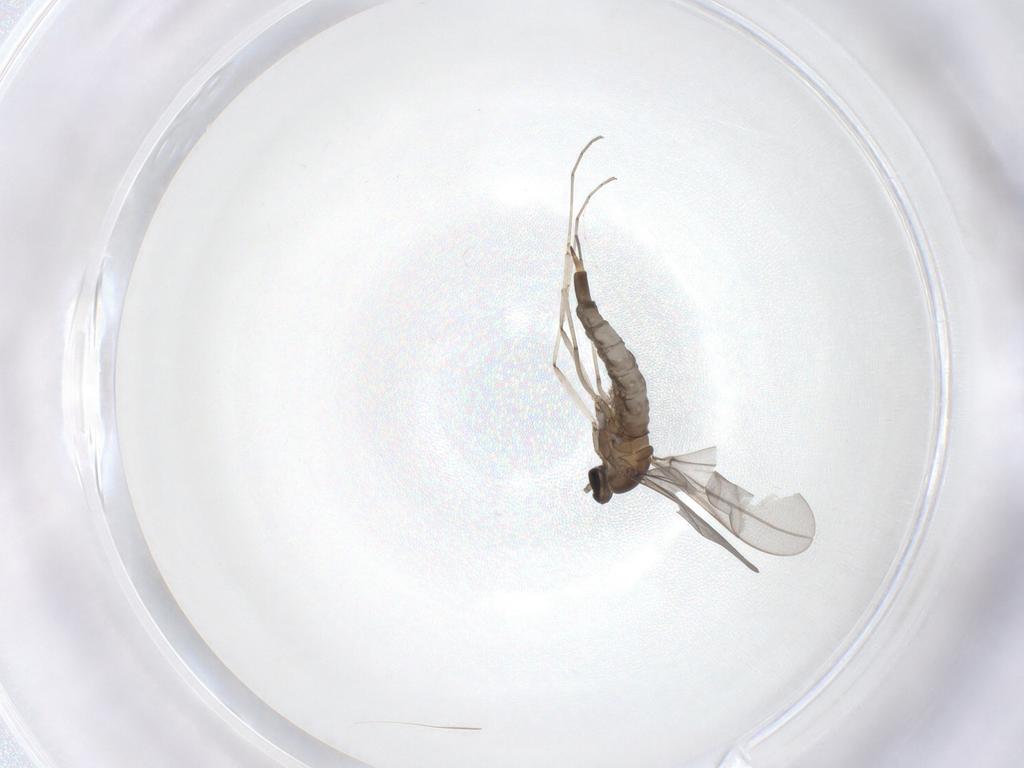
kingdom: Animalia
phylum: Arthropoda
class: Insecta
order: Diptera
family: Cecidomyiidae
